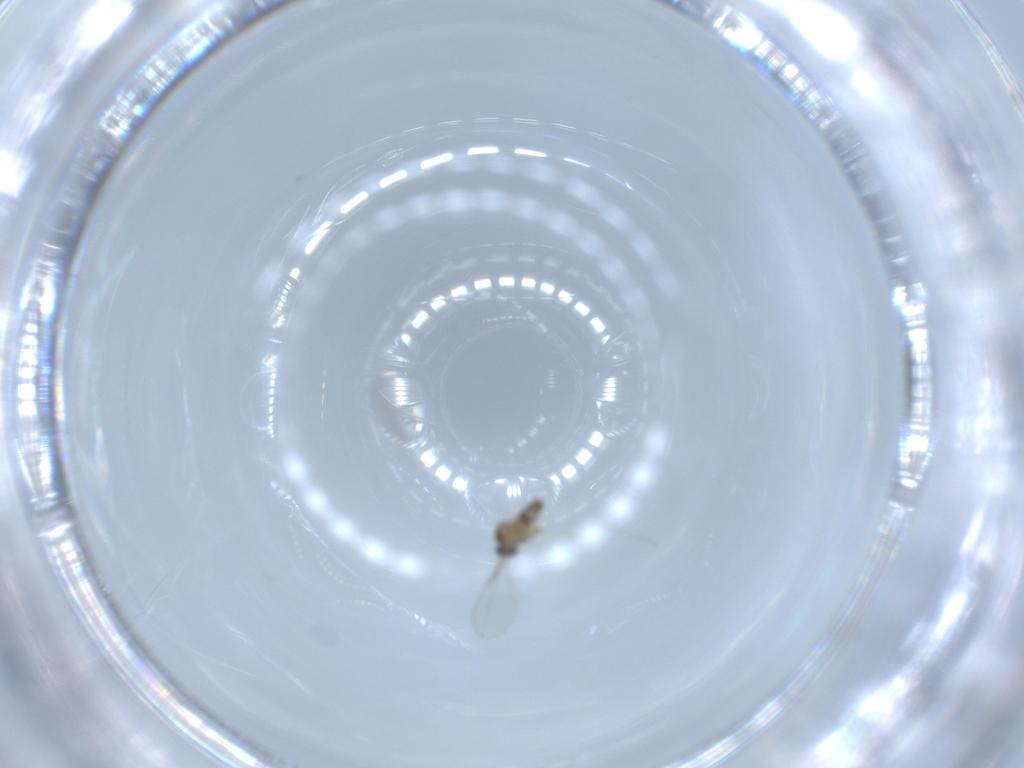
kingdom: Animalia
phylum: Arthropoda
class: Insecta
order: Diptera
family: Cecidomyiidae
